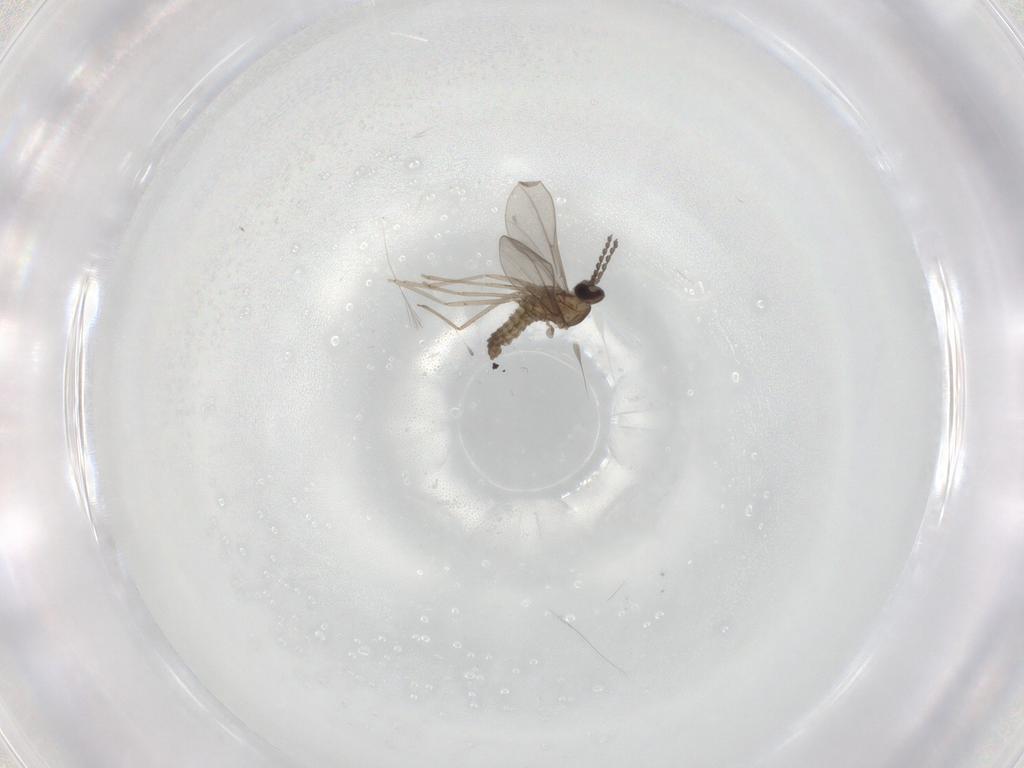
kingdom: Animalia
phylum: Arthropoda
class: Insecta
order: Diptera
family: Cecidomyiidae
